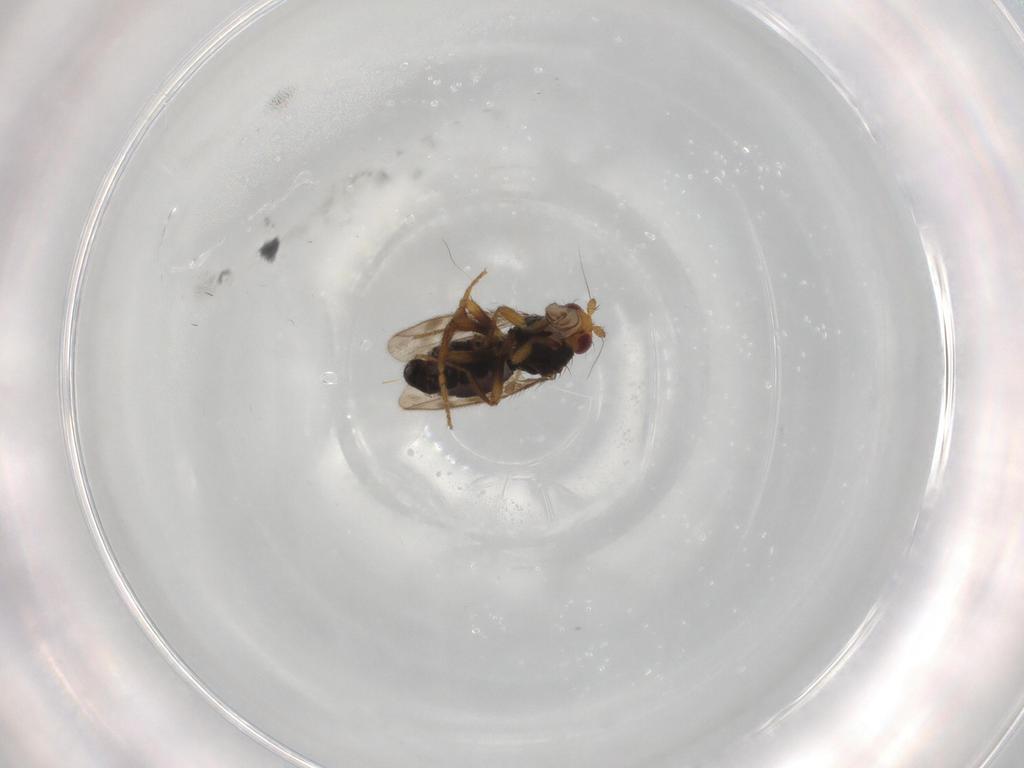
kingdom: Animalia
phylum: Arthropoda
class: Insecta
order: Diptera
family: Sphaeroceridae
